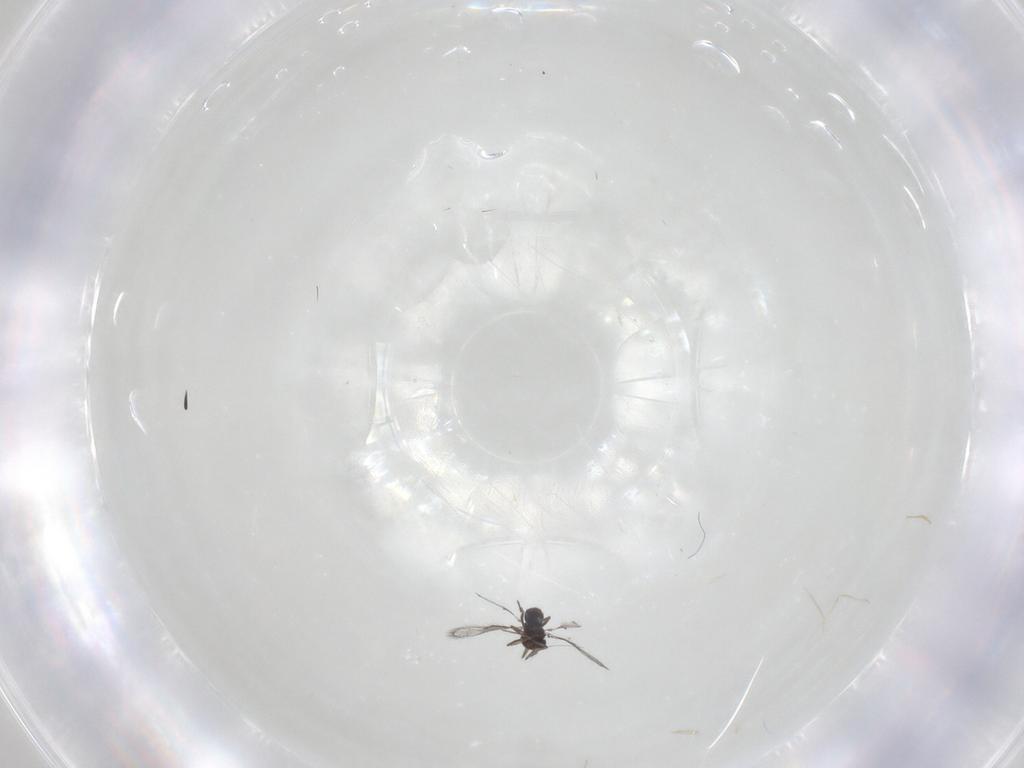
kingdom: Animalia
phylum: Arthropoda
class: Insecta
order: Hymenoptera
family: Trichogrammatidae
